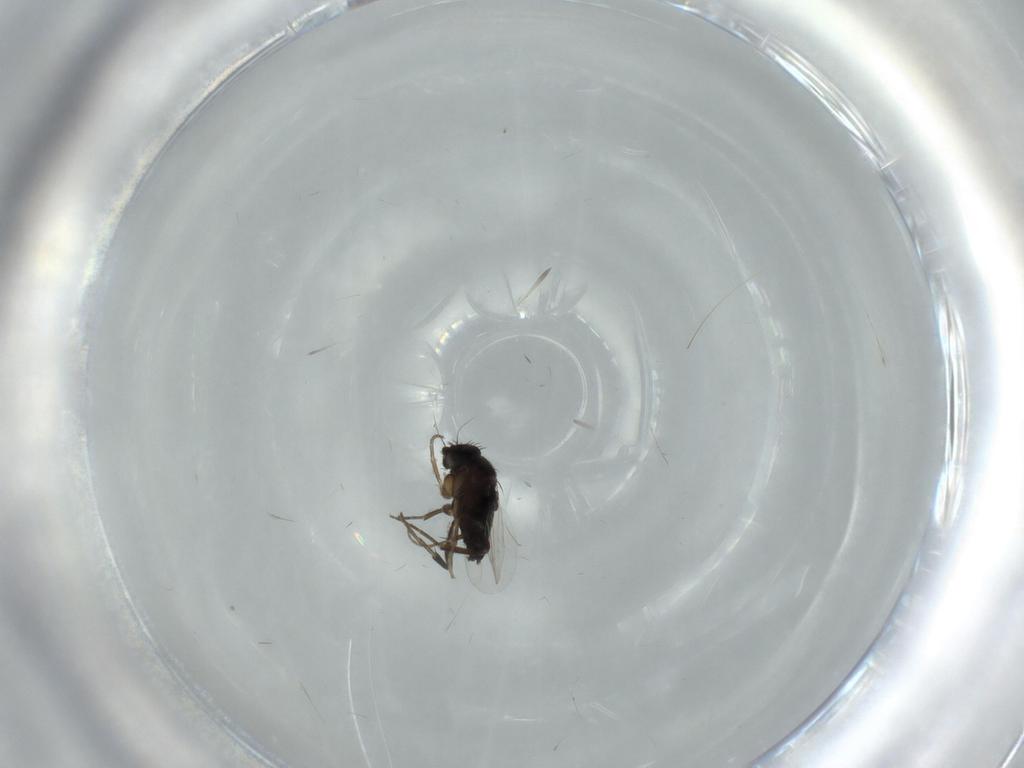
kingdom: Animalia
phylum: Arthropoda
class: Insecta
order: Diptera
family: Phoridae
